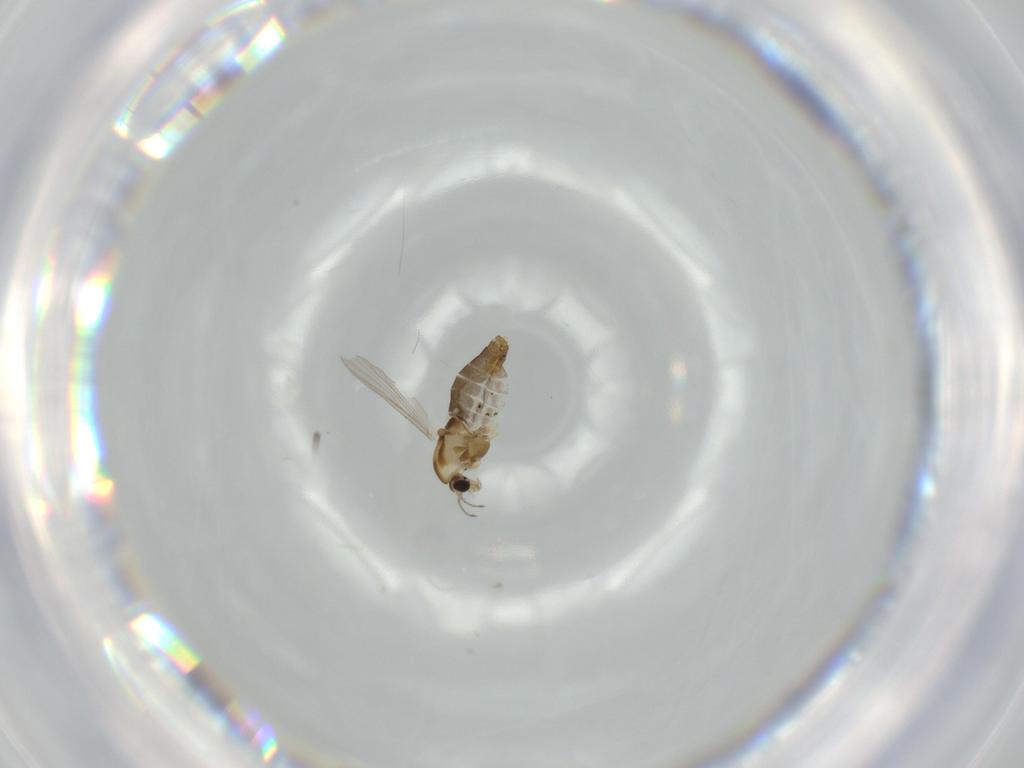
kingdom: Animalia
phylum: Arthropoda
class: Insecta
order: Diptera
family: Chironomidae
